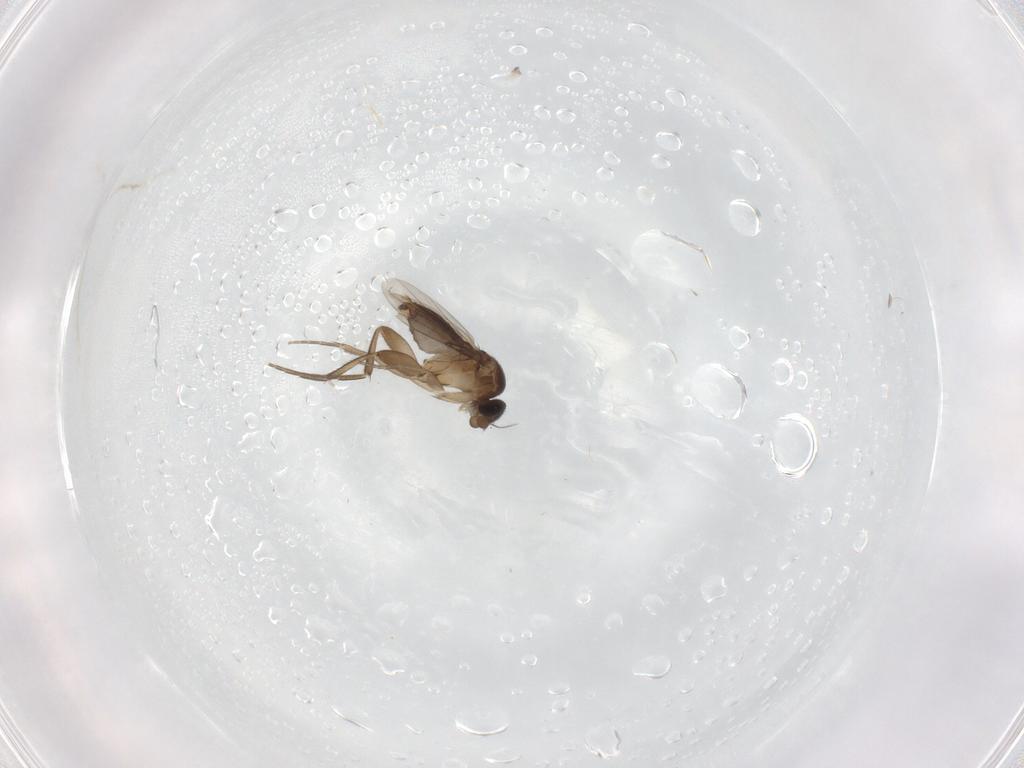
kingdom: Animalia
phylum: Arthropoda
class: Insecta
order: Diptera
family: Phoridae
